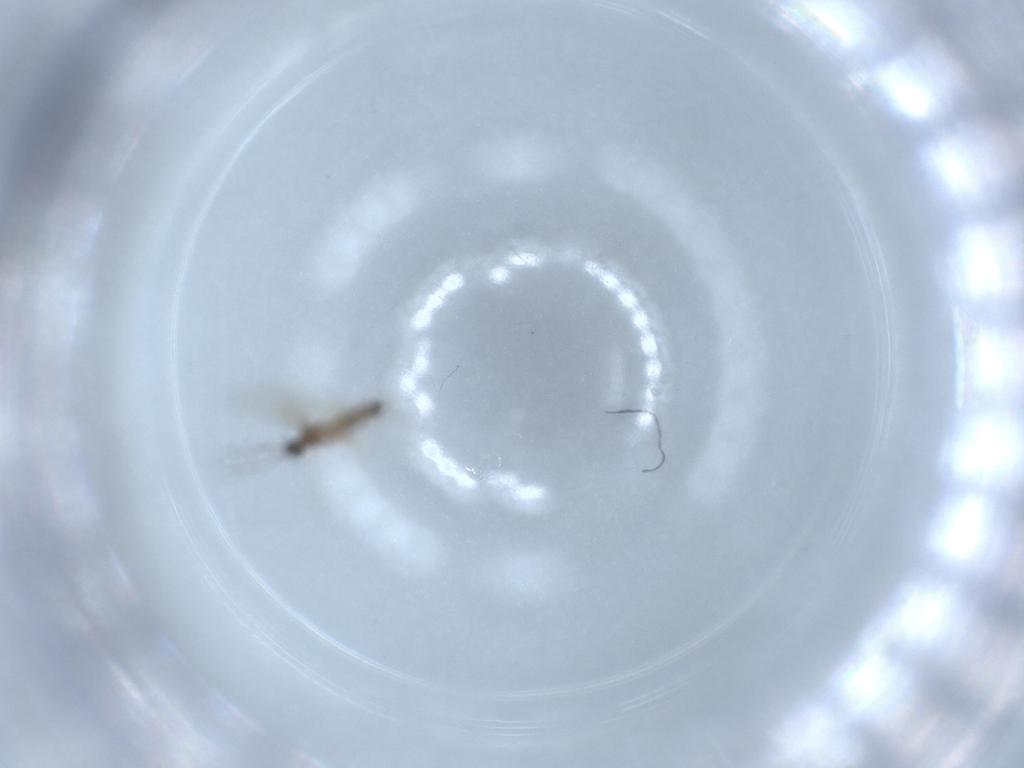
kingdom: Animalia
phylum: Arthropoda
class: Insecta
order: Diptera
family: Cecidomyiidae
